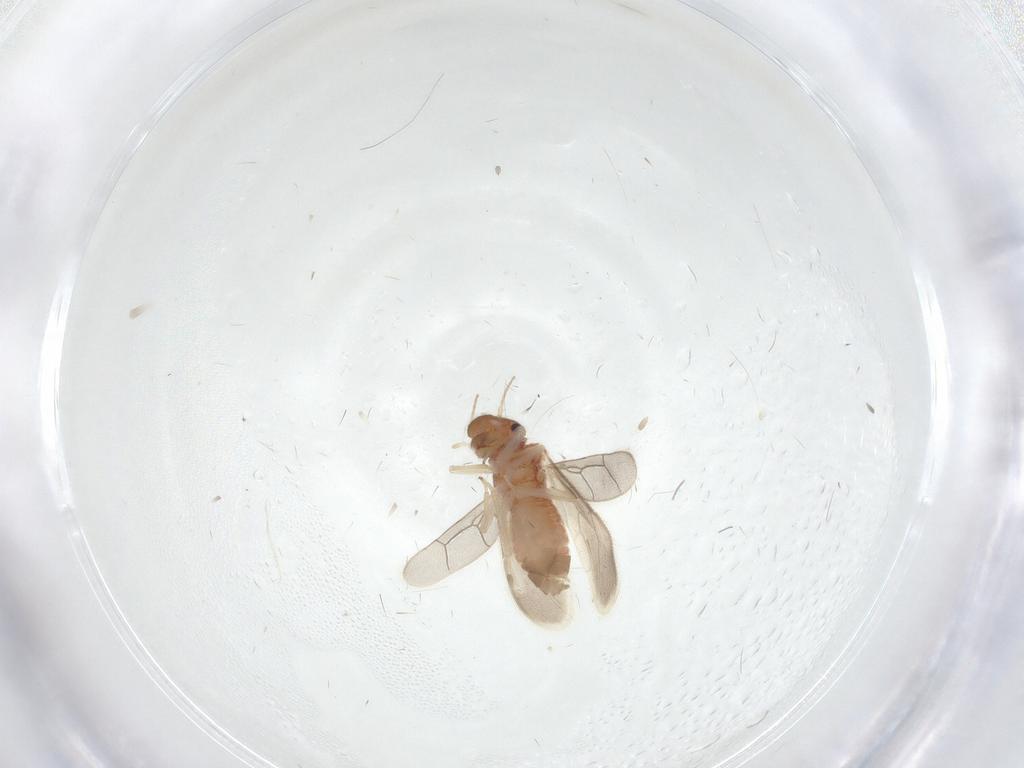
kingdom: Animalia
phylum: Arthropoda
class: Insecta
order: Psocodea
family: Archipsocidae
